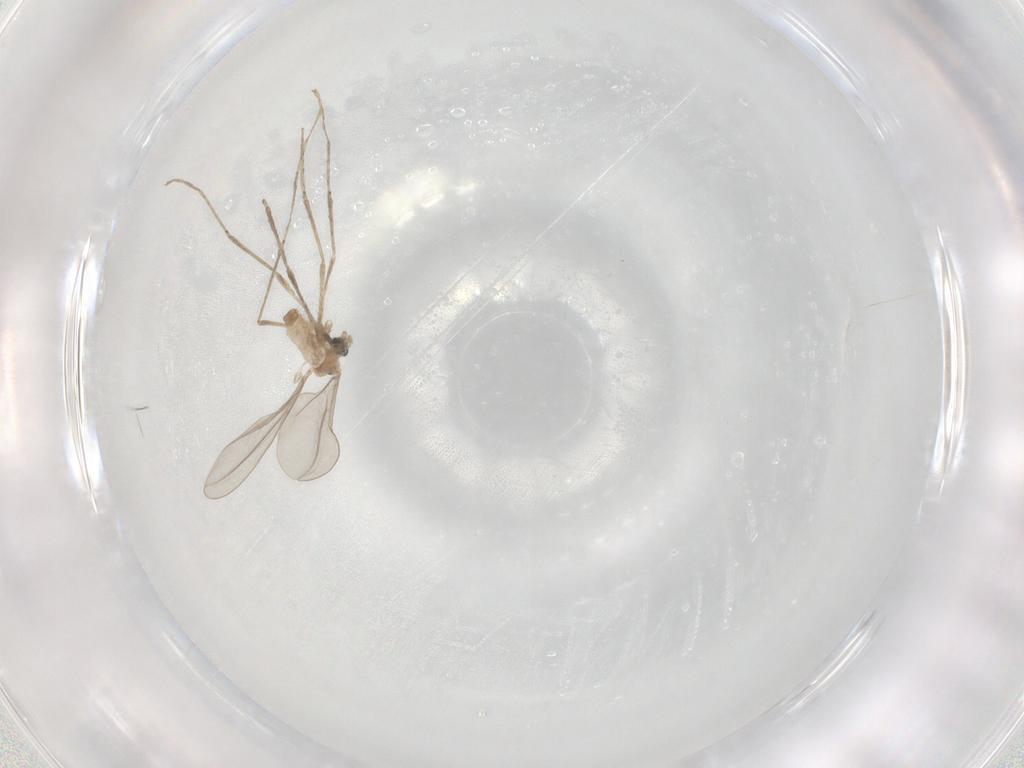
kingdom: Animalia
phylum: Arthropoda
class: Insecta
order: Diptera
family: Cecidomyiidae
